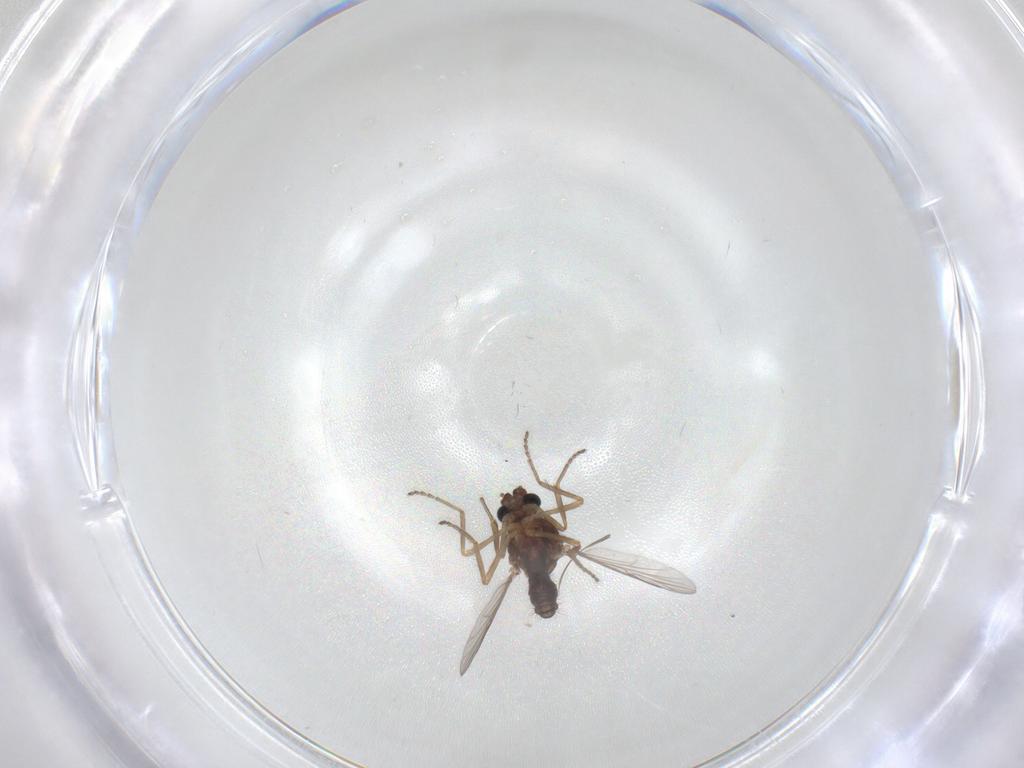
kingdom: Animalia
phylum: Arthropoda
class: Insecta
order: Diptera
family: Ceratopogonidae
